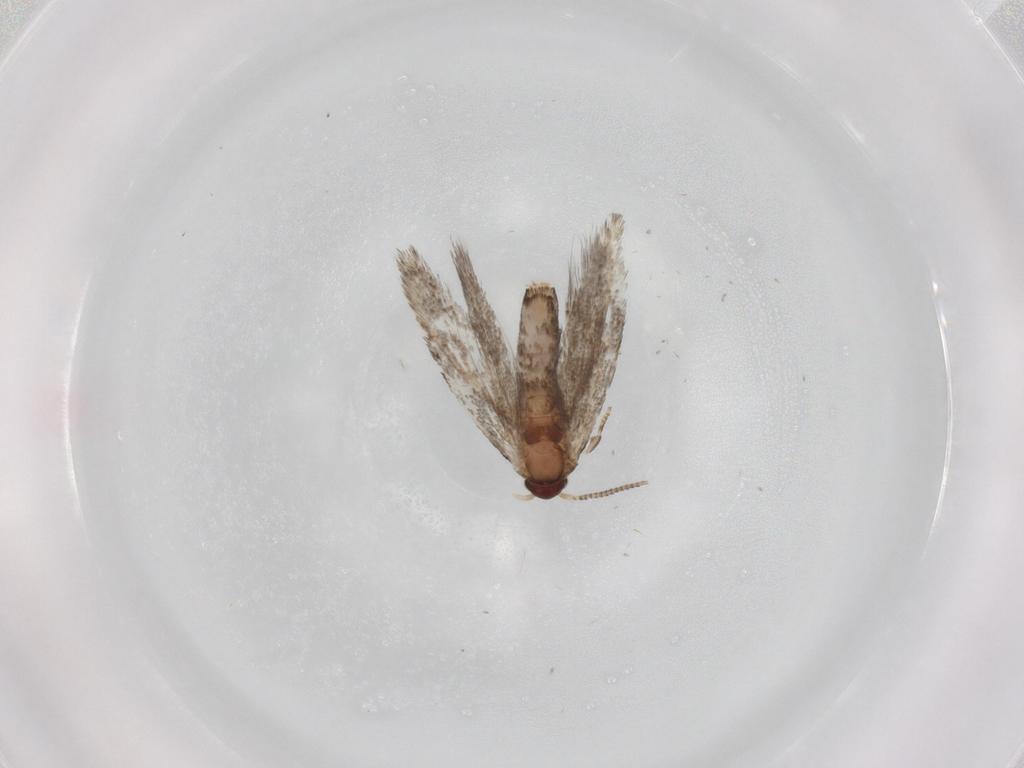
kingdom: Animalia
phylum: Arthropoda
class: Insecta
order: Lepidoptera
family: Tineidae
